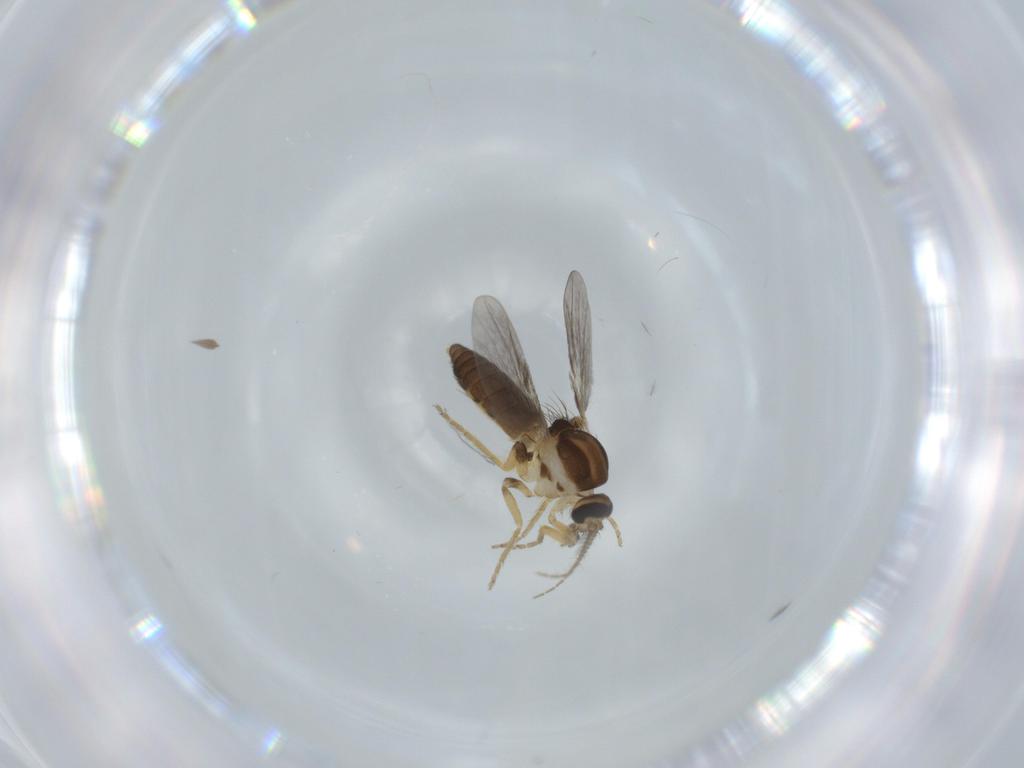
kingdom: Animalia
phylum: Arthropoda
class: Insecta
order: Diptera
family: Ceratopogonidae
